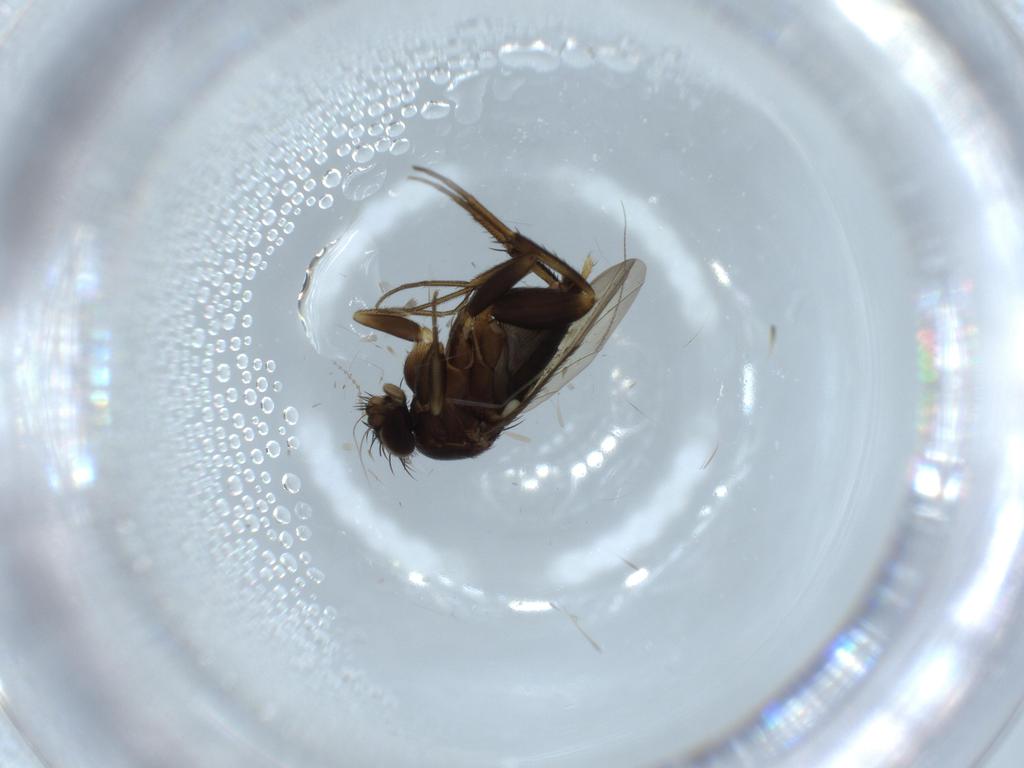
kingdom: Animalia
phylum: Arthropoda
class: Insecta
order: Diptera
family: Phoridae
